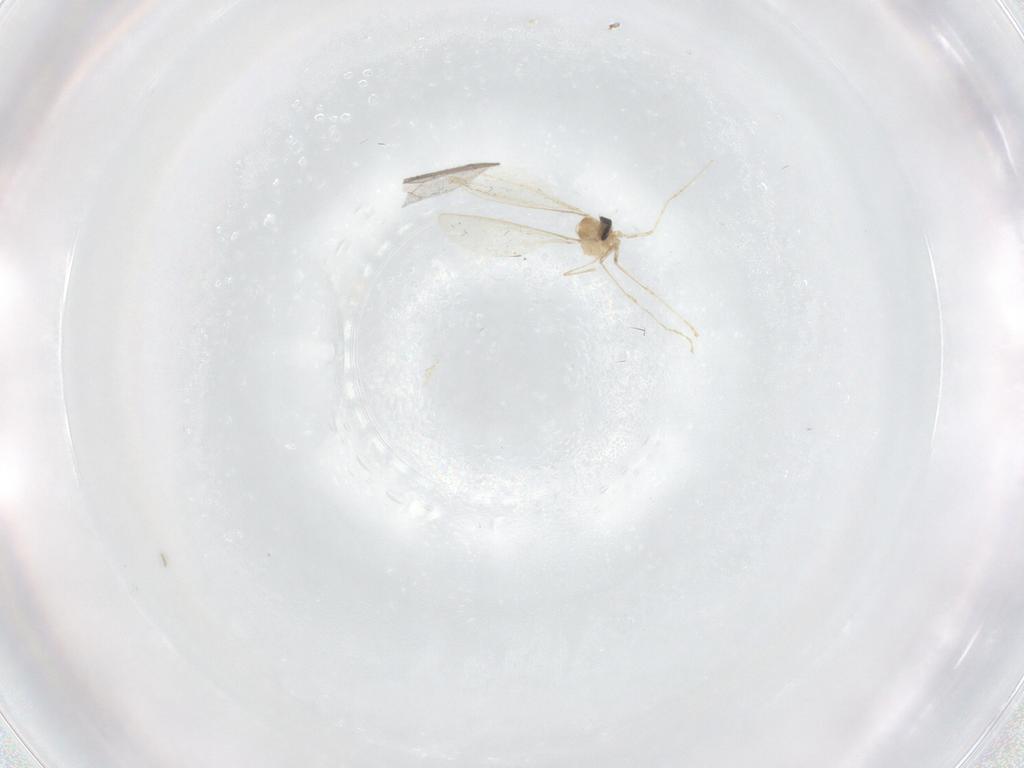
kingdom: Animalia
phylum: Arthropoda
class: Insecta
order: Diptera
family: Cecidomyiidae
